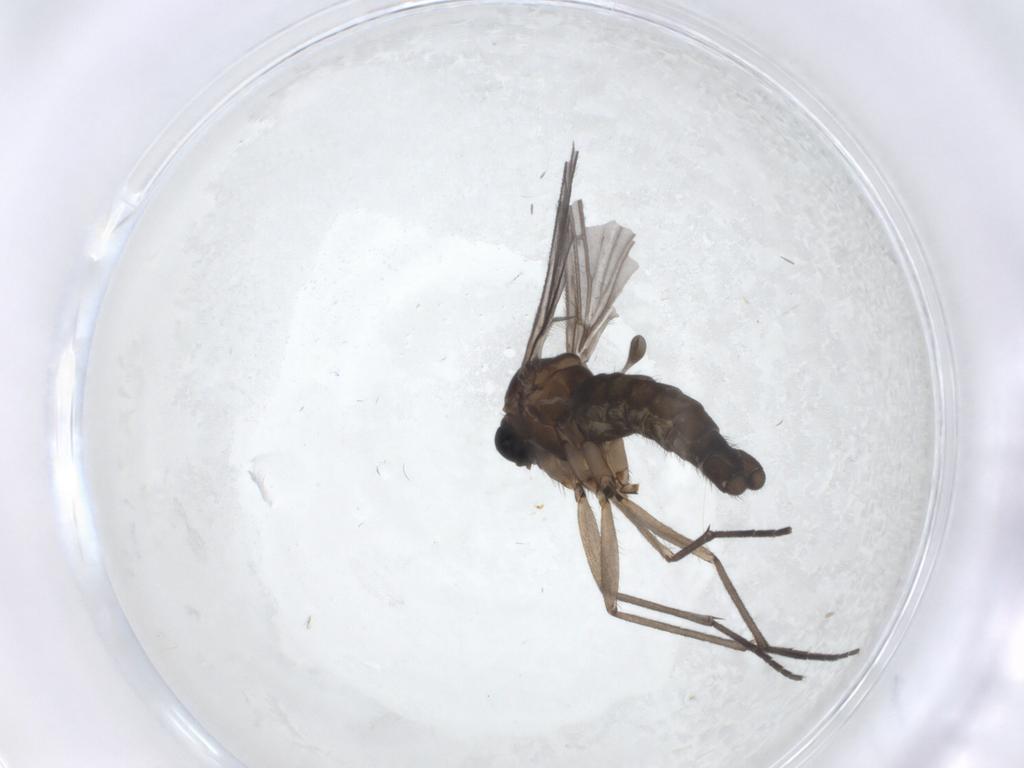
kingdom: Animalia
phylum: Arthropoda
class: Insecta
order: Diptera
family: Sciaridae
